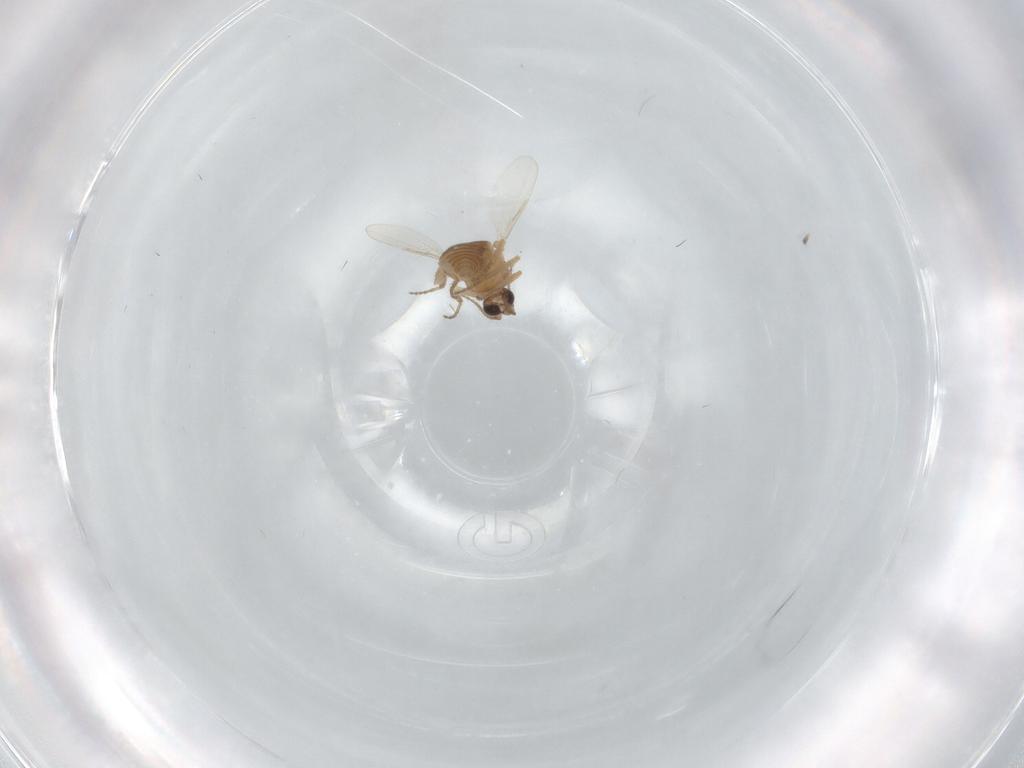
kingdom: Animalia
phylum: Arthropoda
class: Insecta
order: Diptera
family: Ceratopogonidae
